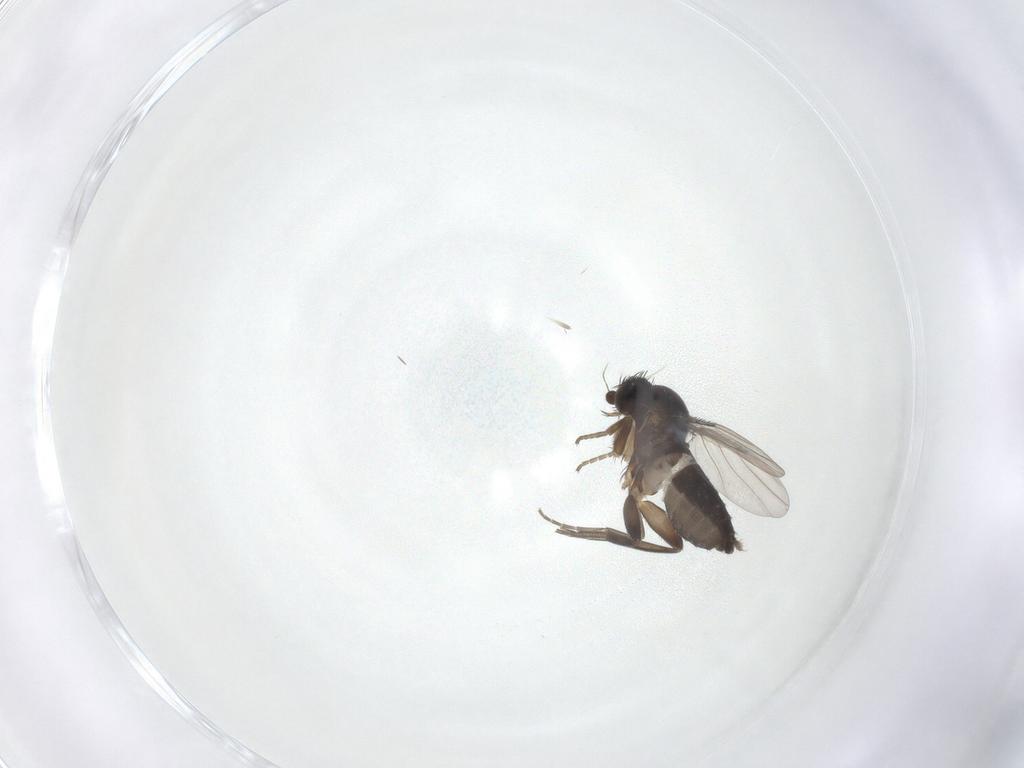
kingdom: Animalia
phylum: Arthropoda
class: Insecta
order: Diptera
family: Phoridae
